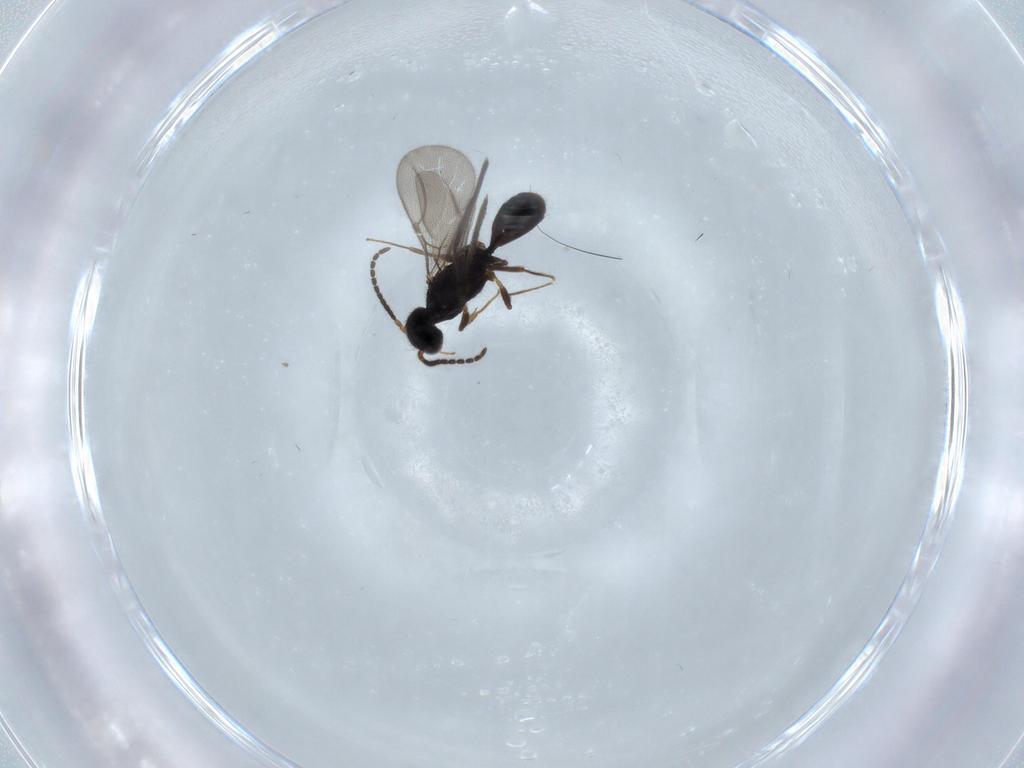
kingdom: Animalia
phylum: Arthropoda
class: Insecta
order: Hymenoptera
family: Bethylidae
